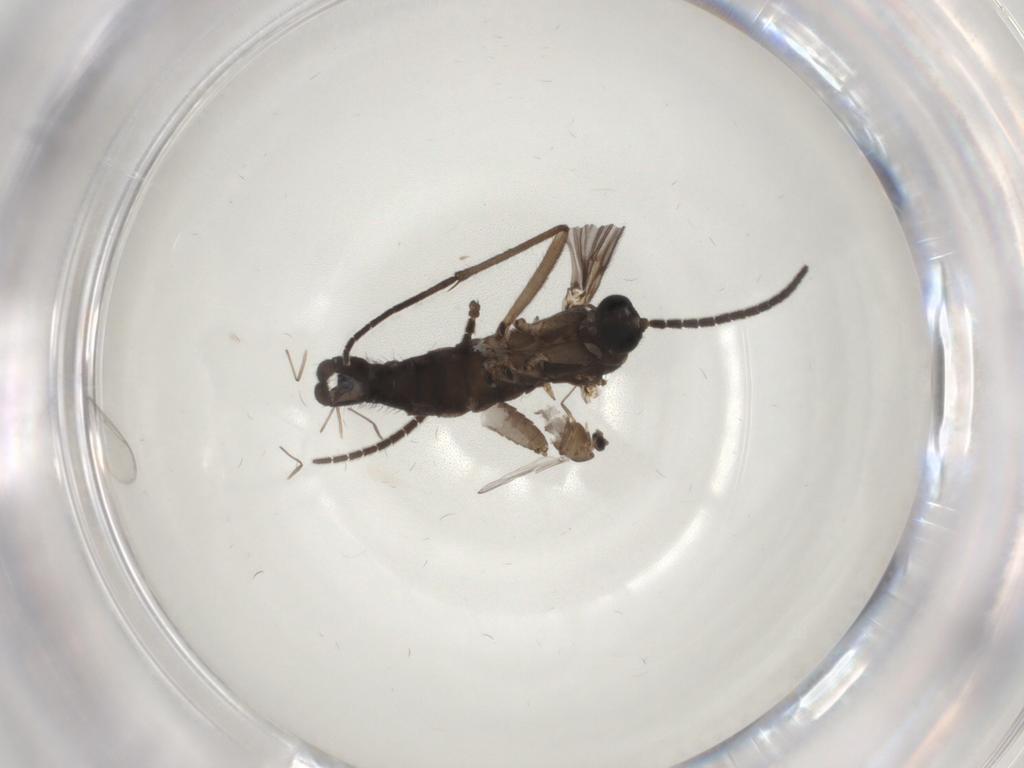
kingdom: Animalia
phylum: Arthropoda
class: Insecta
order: Diptera
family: Sciaridae
